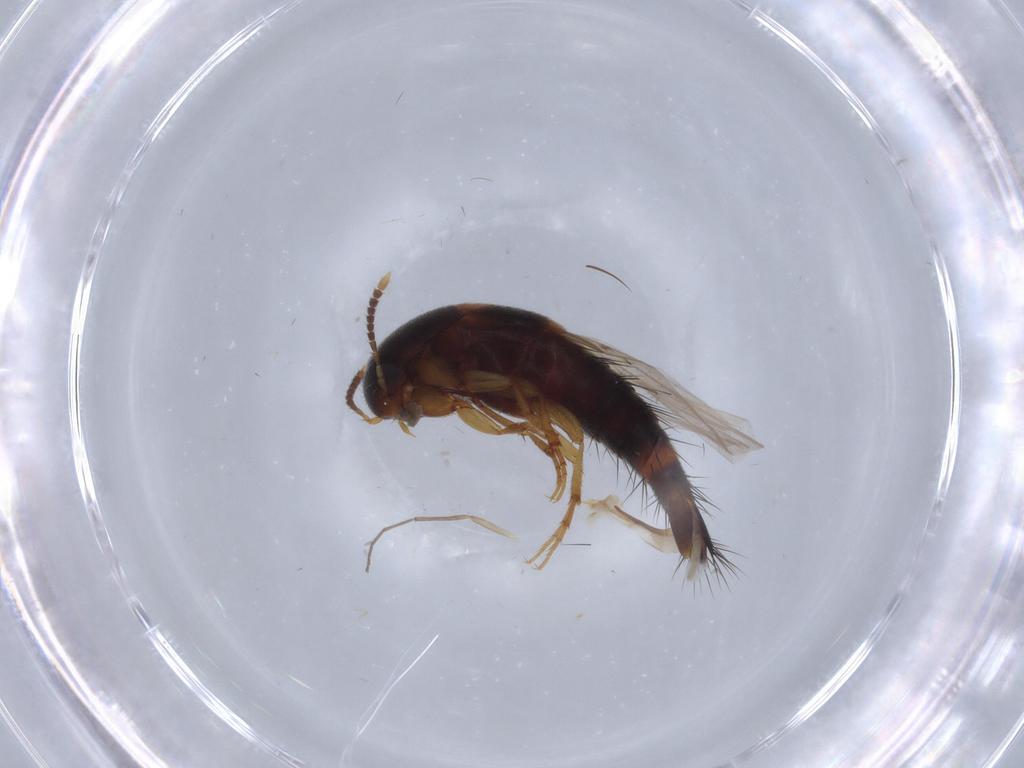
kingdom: Animalia
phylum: Arthropoda
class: Insecta
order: Coleoptera
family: Staphylinidae
